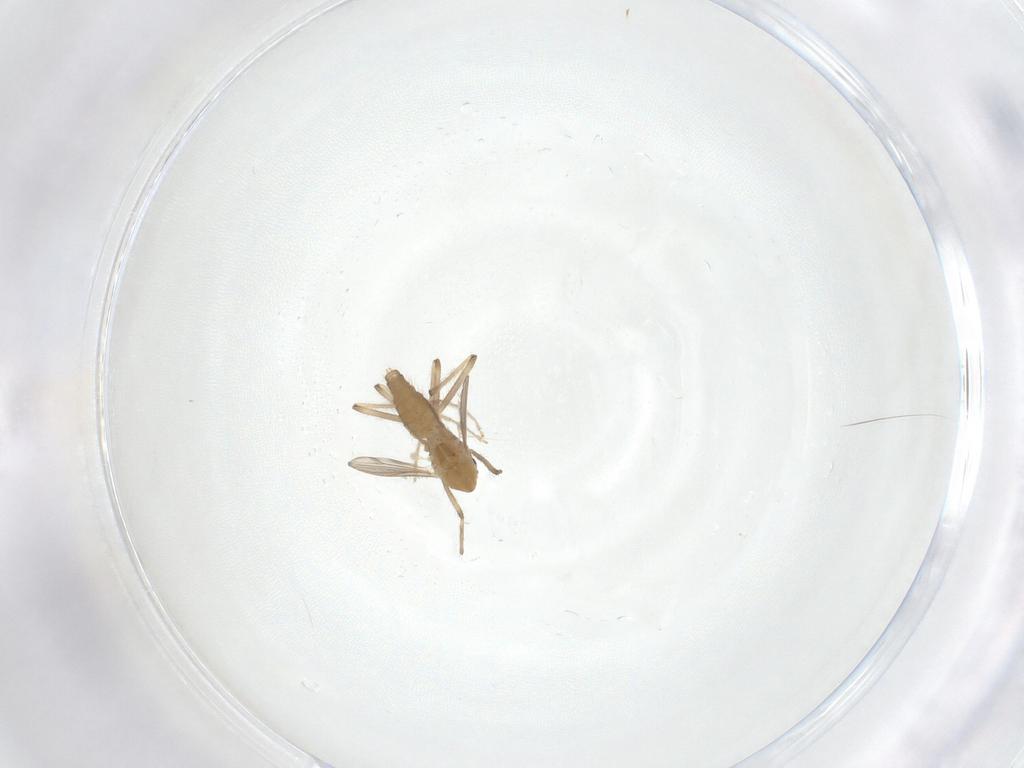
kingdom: Animalia
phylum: Arthropoda
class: Insecta
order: Diptera
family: Chironomidae
